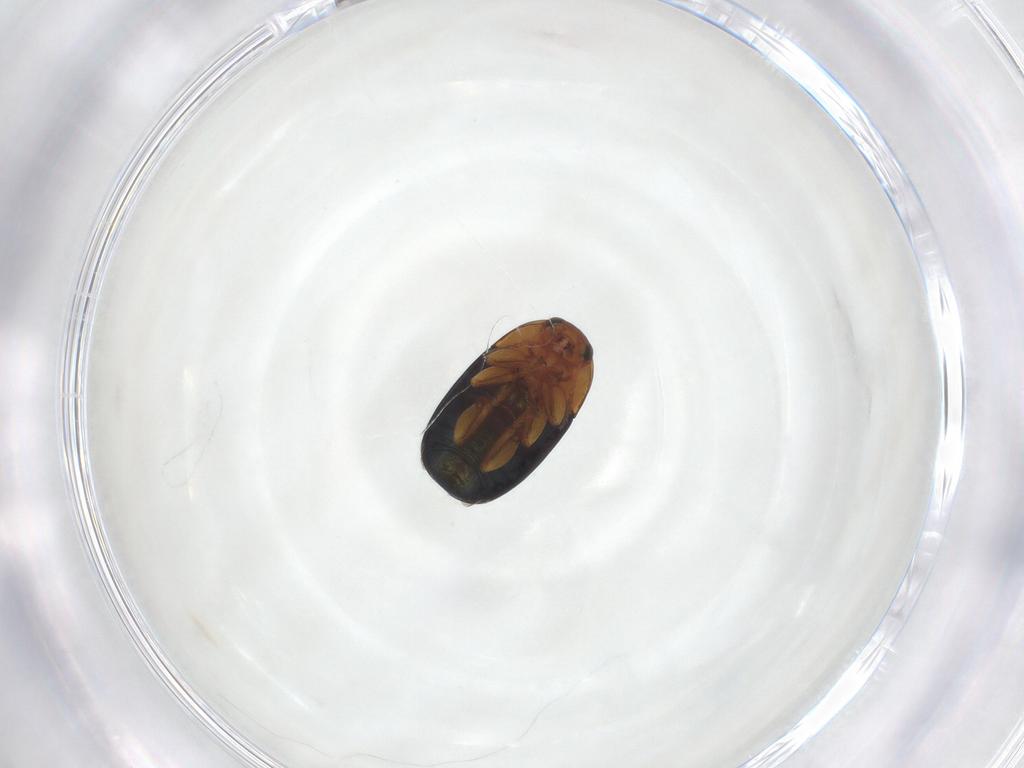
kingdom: Animalia
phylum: Arthropoda
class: Insecta
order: Coleoptera
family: Chrysomelidae
